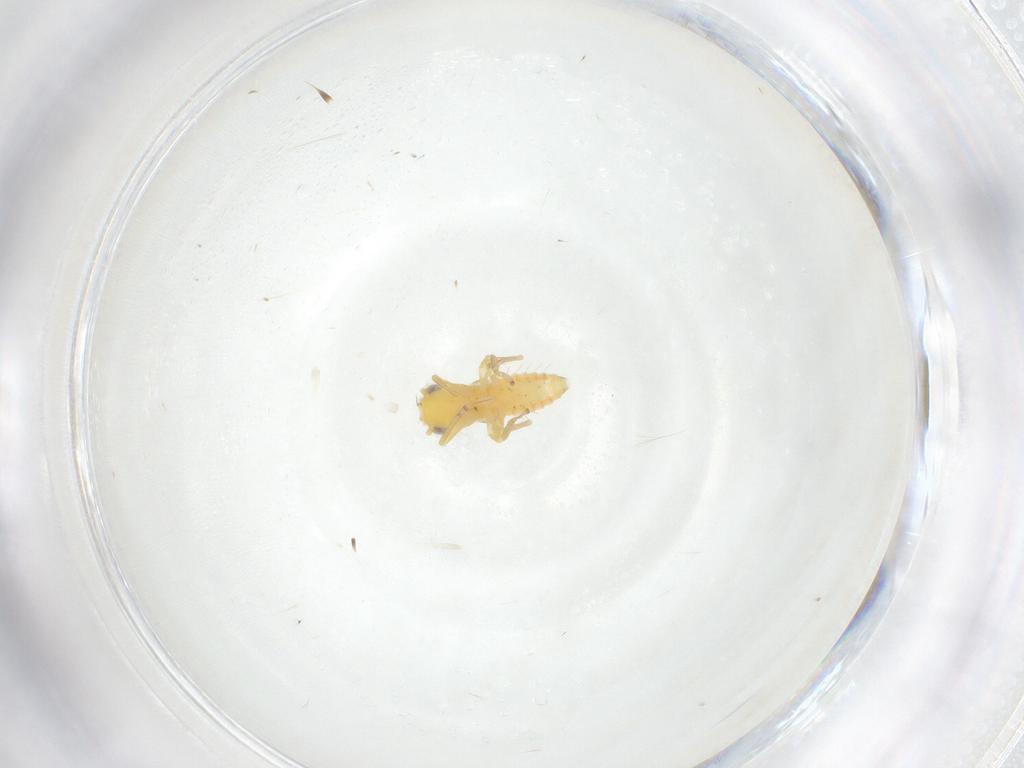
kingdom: Animalia
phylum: Arthropoda
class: Insecta
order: Hemiptera
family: Cicadellidae
